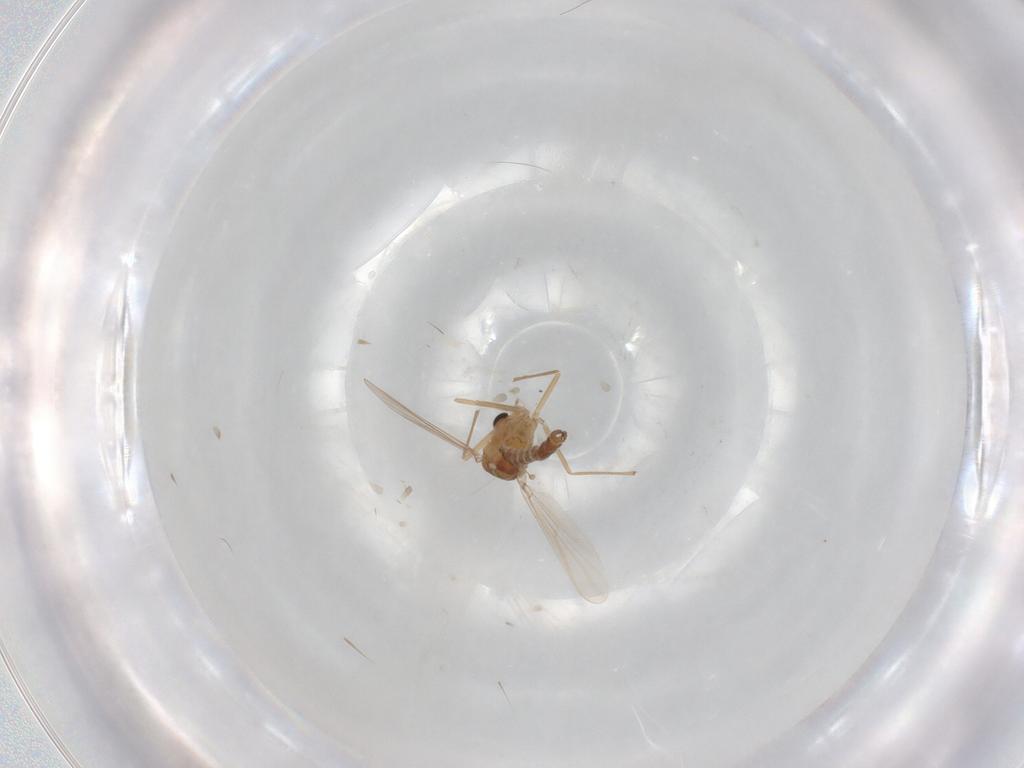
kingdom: Animalia
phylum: Arthropoda
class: Insecta
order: Diptera
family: Chironomidae
